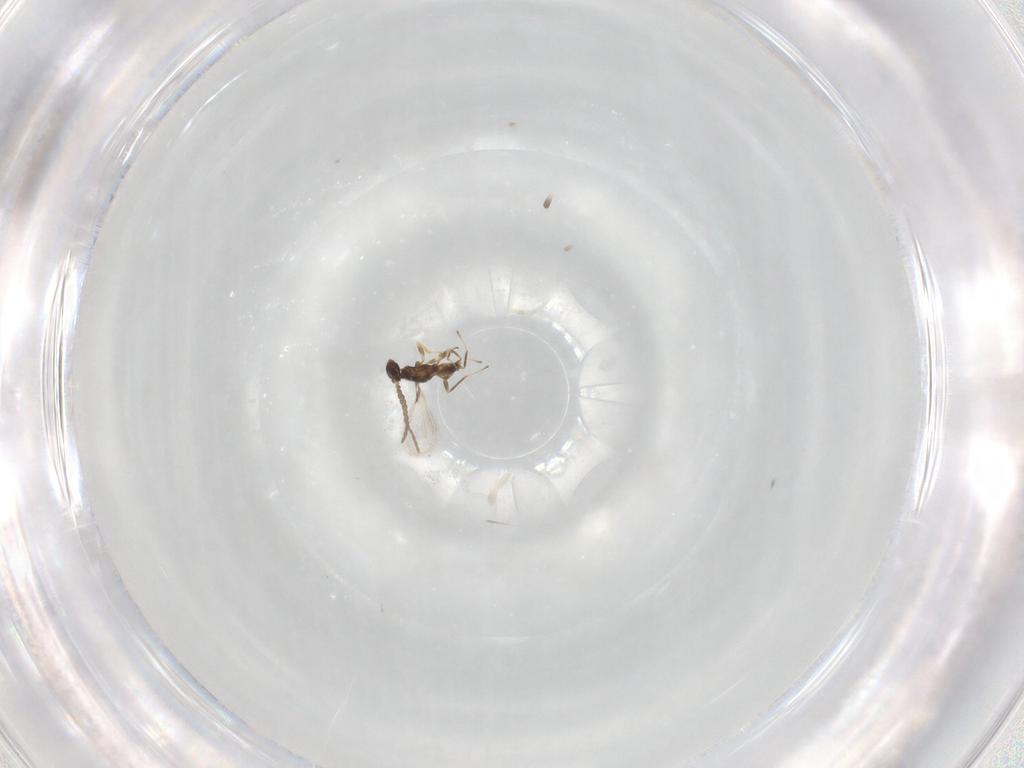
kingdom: Animalia
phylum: Arthropoda
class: Insecta
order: Hymenoptera
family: Mymaridae
